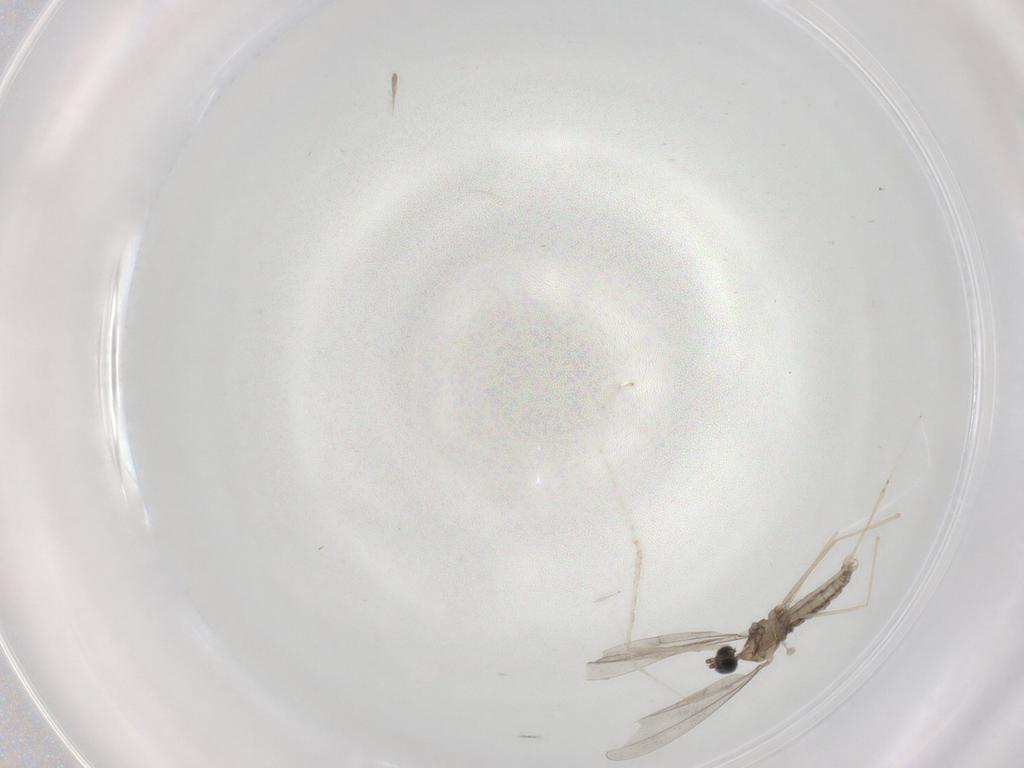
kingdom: Animalia
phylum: Arthropoda
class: Insecta
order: Diptera
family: Cecidomyiidae
